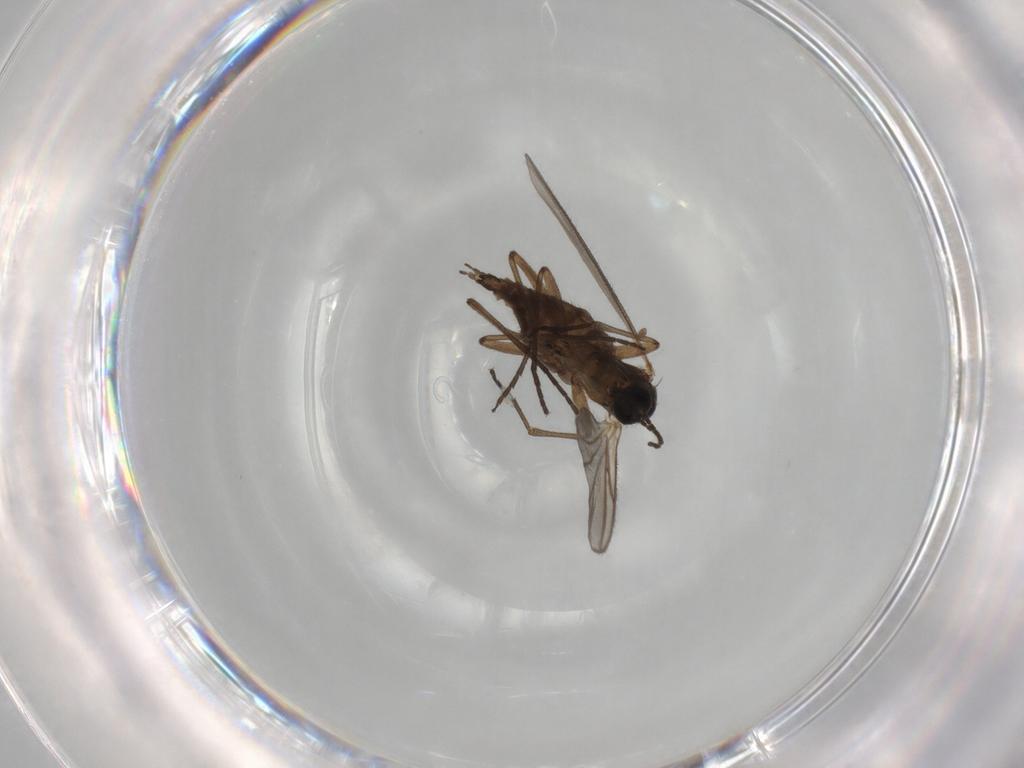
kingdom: Animalia
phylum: Arthropoda
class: Insecta
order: Diptera
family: Sciaridae
